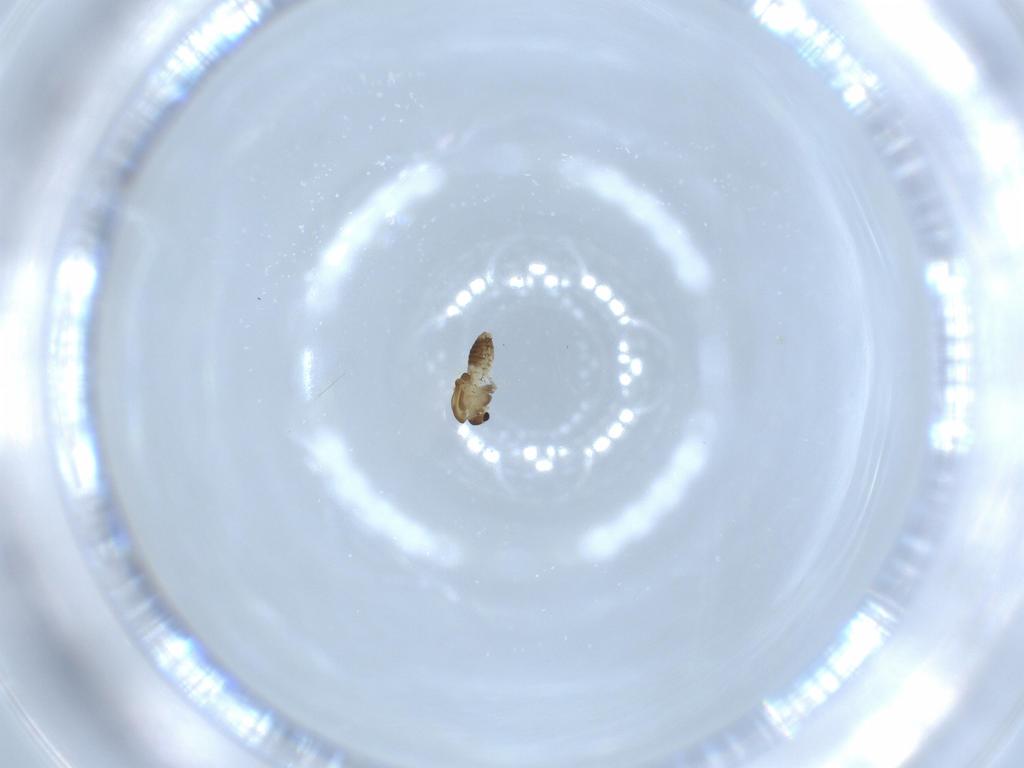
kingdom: Animalia
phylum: Arthropoda
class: Insecta
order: Diptera
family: Chironomidae
